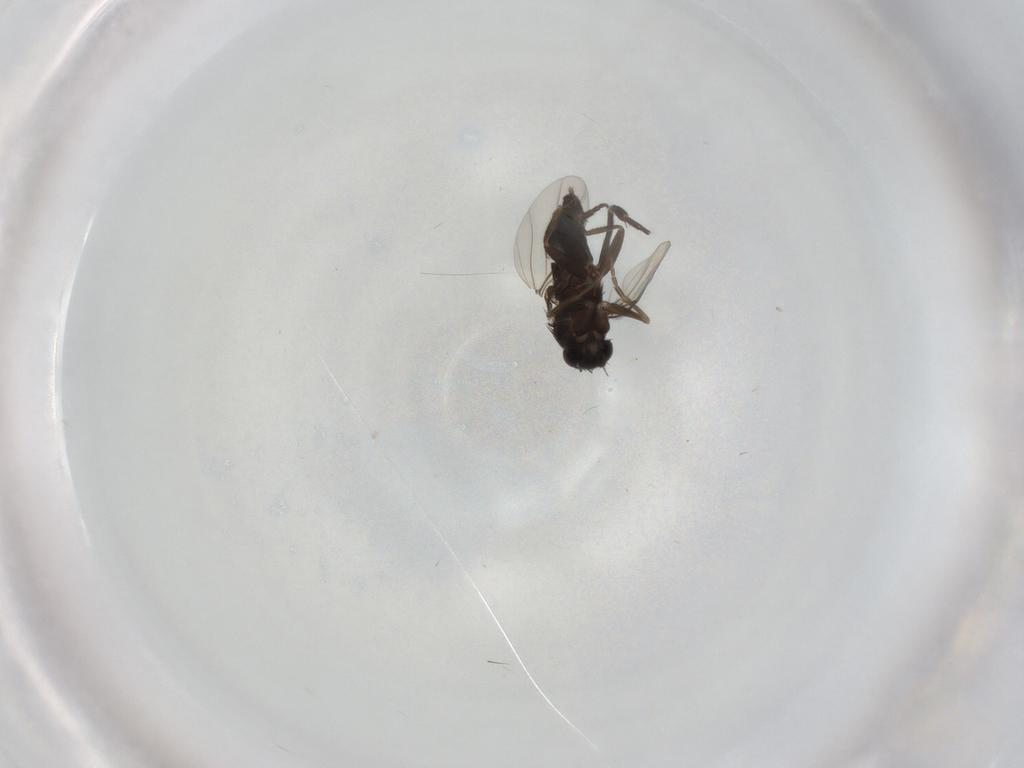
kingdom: Animalia
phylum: Arthropoda
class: Insecta
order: Diptera
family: Phoridae
